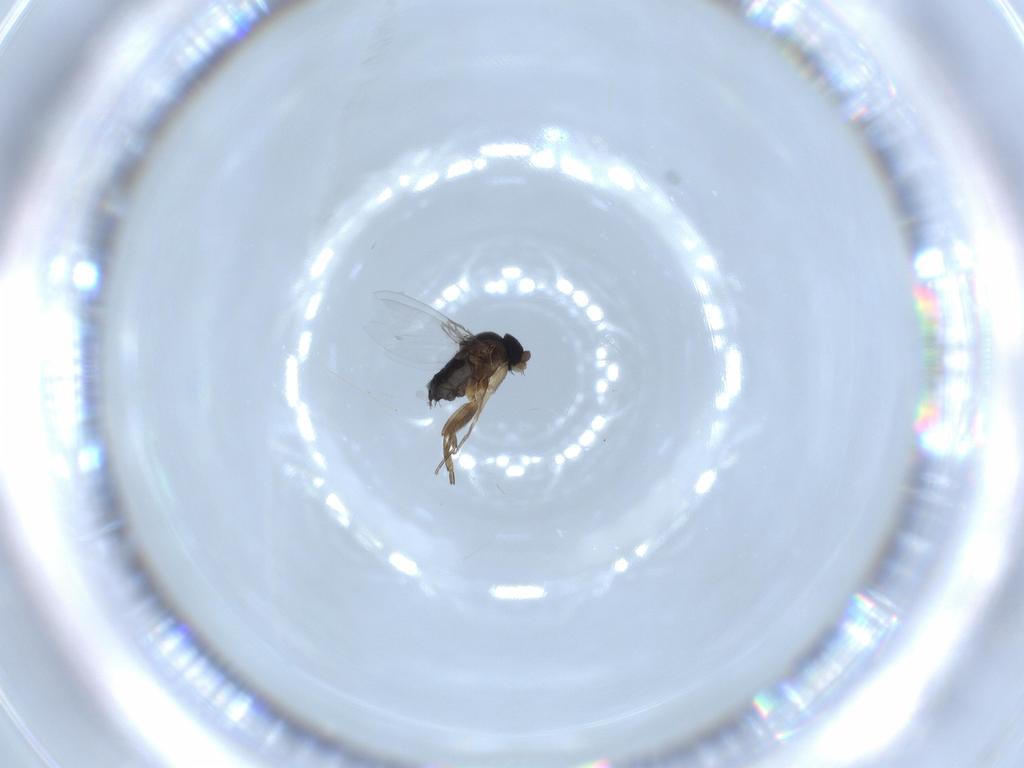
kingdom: Animalia
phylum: Arthropoda
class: Insecta
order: Diptera
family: Phoridae
